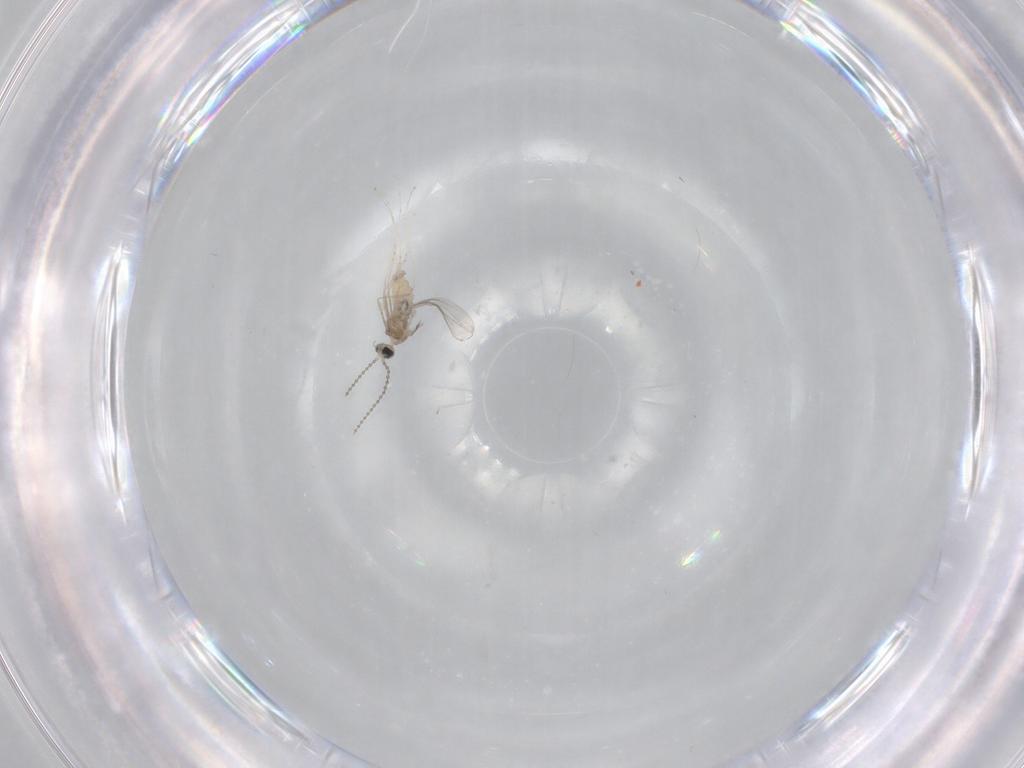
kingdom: Animalia
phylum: Arthropoda
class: Insecta
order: Diptera
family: Cecidomyiidae
